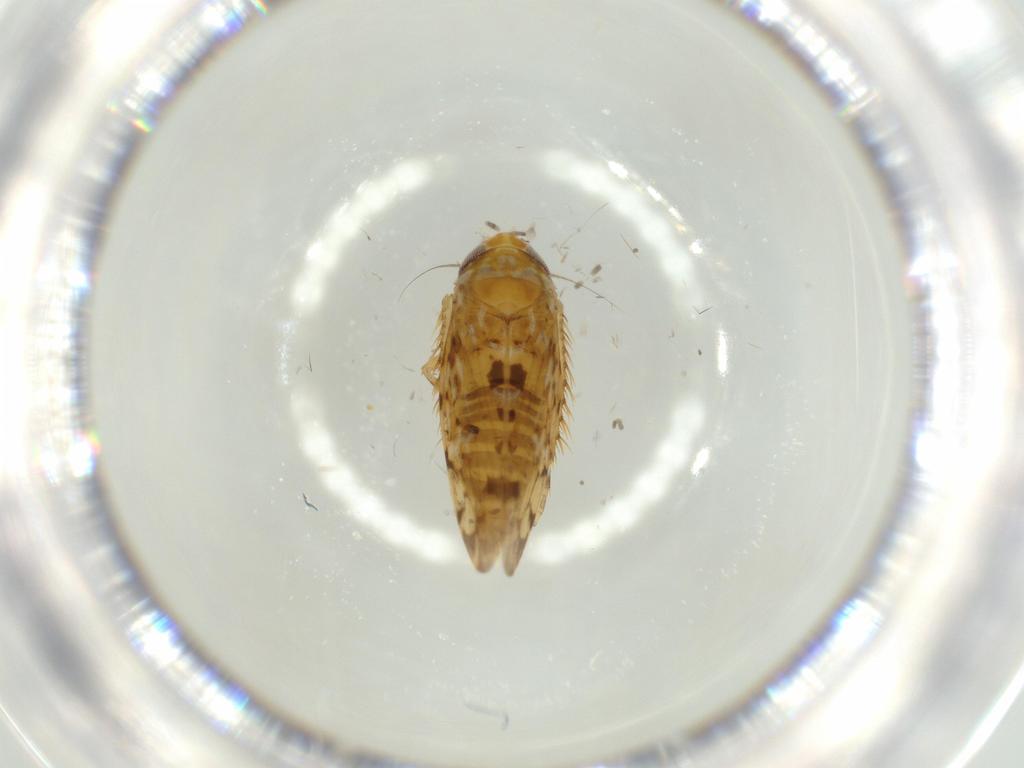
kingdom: Animalia
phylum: Arthropoda
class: Insecta
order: Hemiptera
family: Cicadellidae
